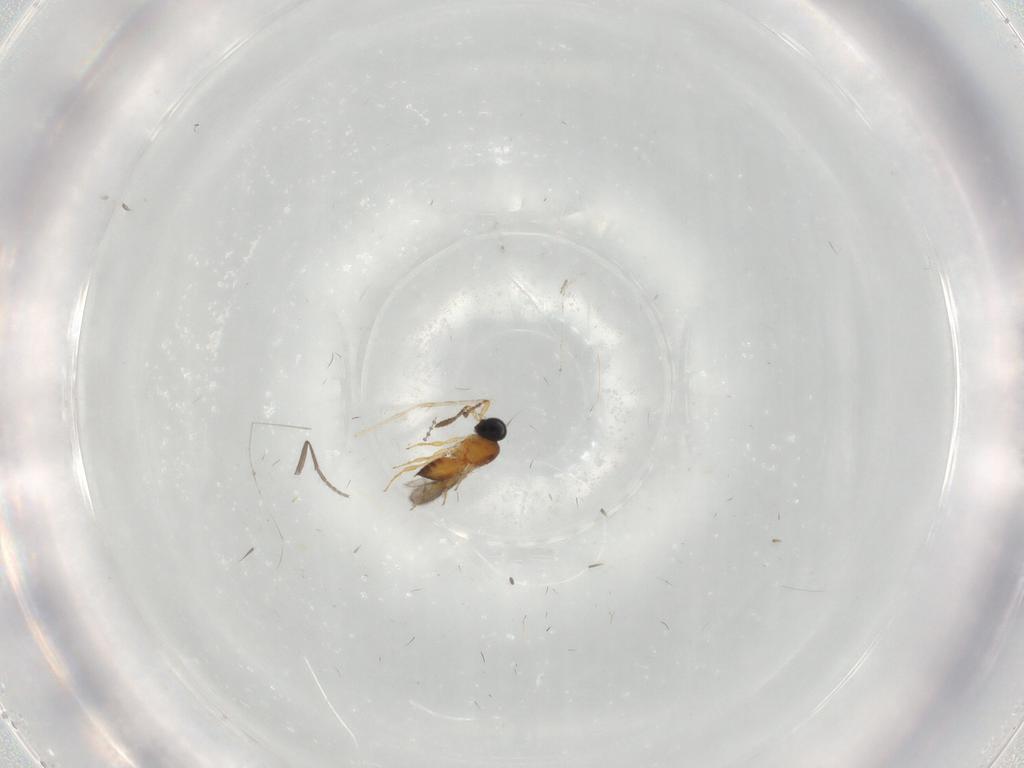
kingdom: Animalia
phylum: Arthropoda
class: Insecta
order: Hymenoptera
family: Scelionidae
